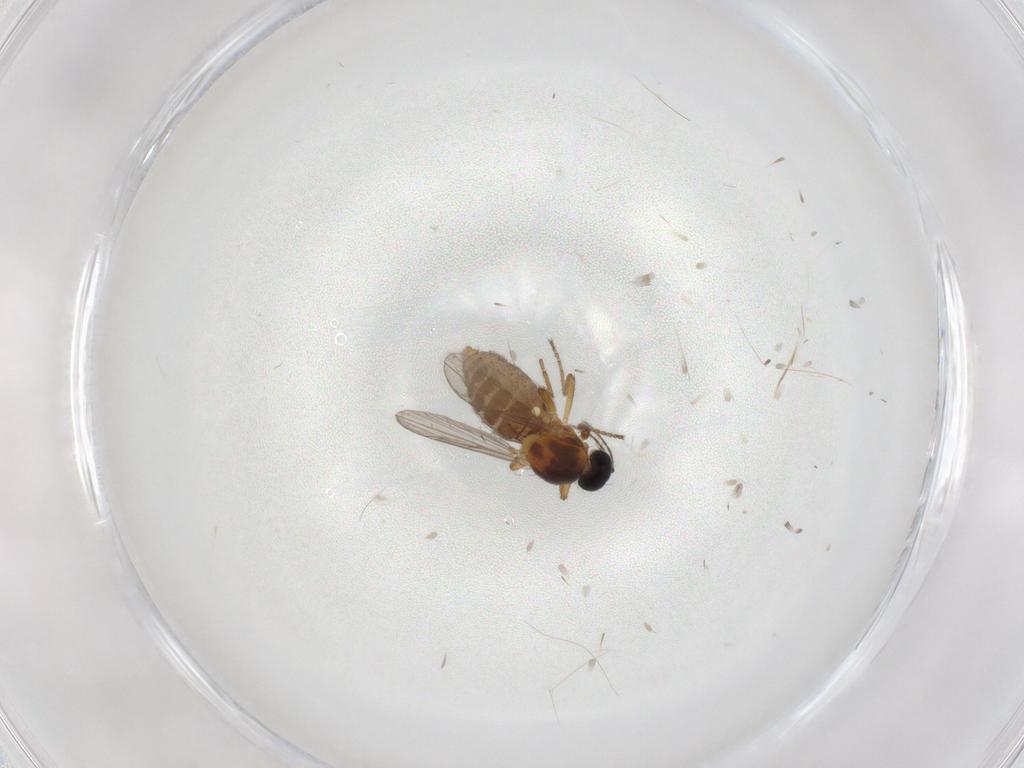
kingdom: Animalia
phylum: Arthropoda
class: Insecta
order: Diptera
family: Ceratopogonidae
